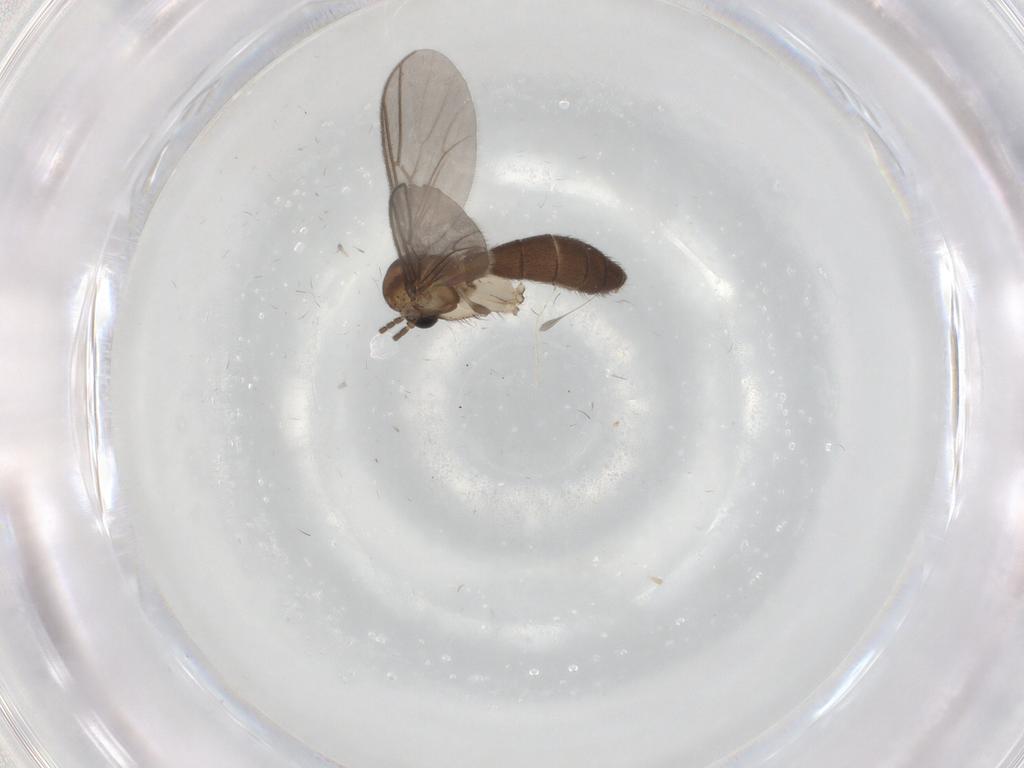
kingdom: Animalia
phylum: Arthropoda
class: Insecta
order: Diptera
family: Mycetophilidae
